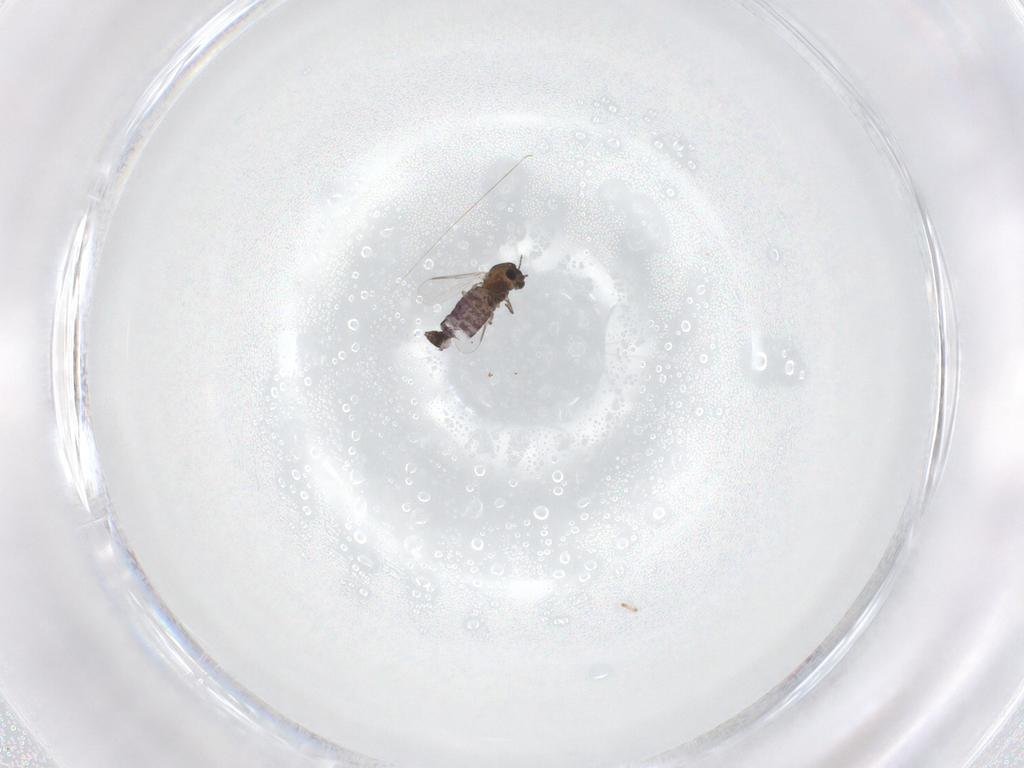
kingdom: Animalia
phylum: Arthropoda
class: Insecta
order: Diptera
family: Chironomidae
